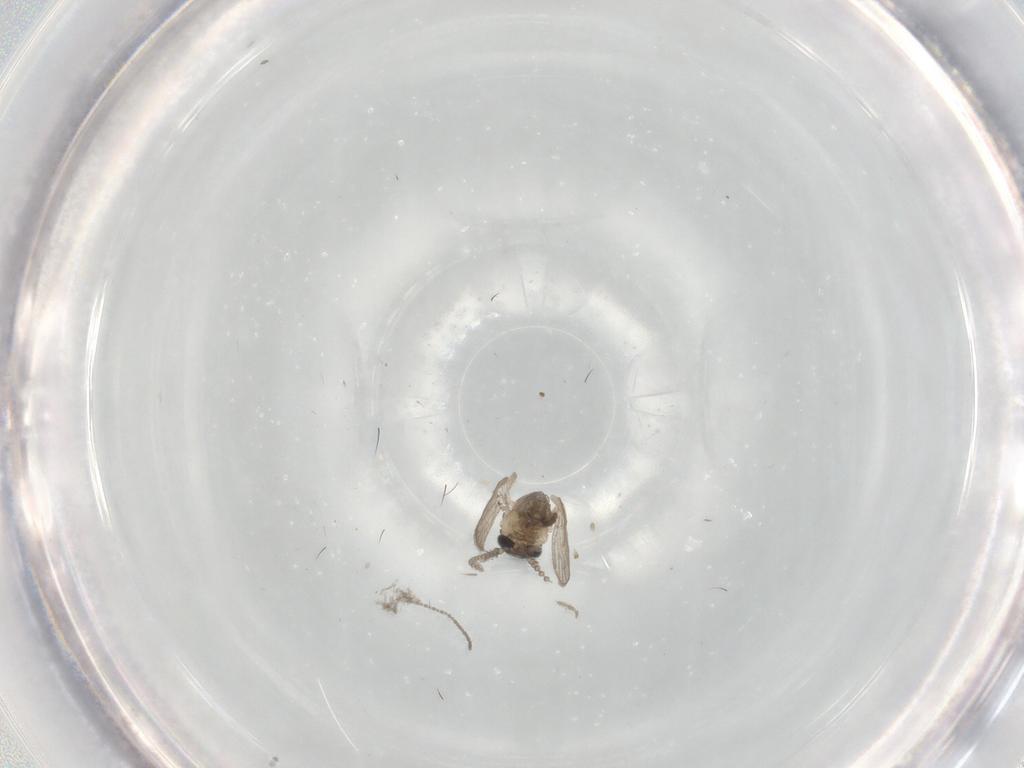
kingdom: Animalia
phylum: Arthropoda
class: Insecta
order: Diptera
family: Psychodidae
